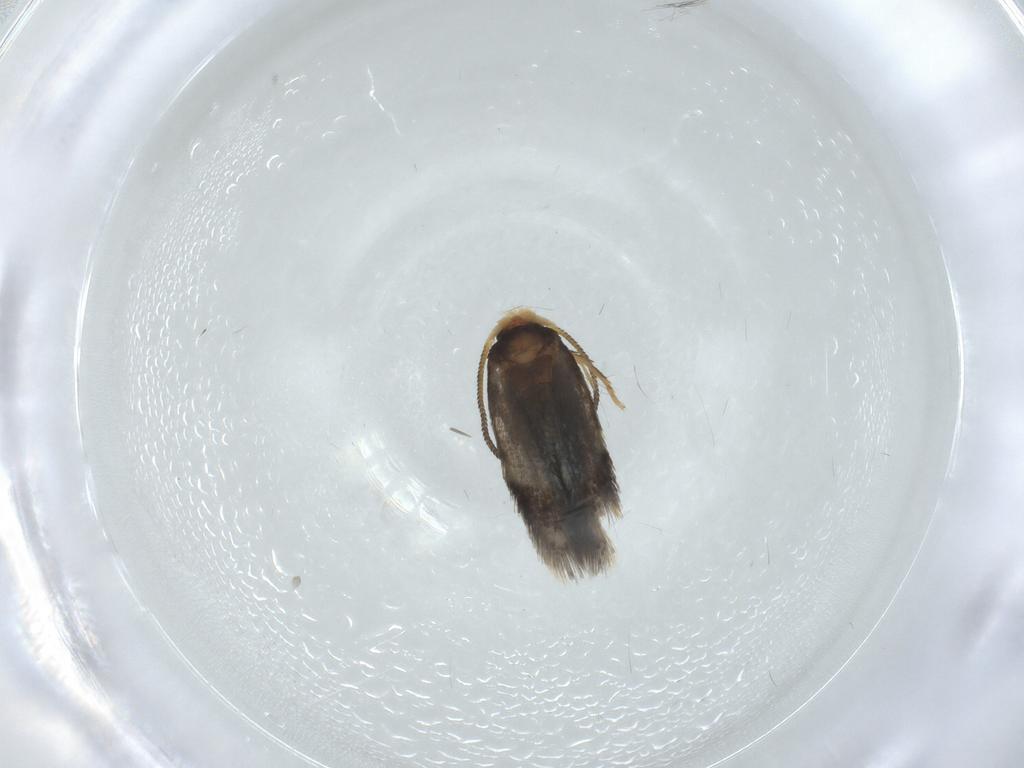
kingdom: Animalia
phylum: Arthropoda
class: Insecta
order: Lepidoptera
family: Nepticulidae
